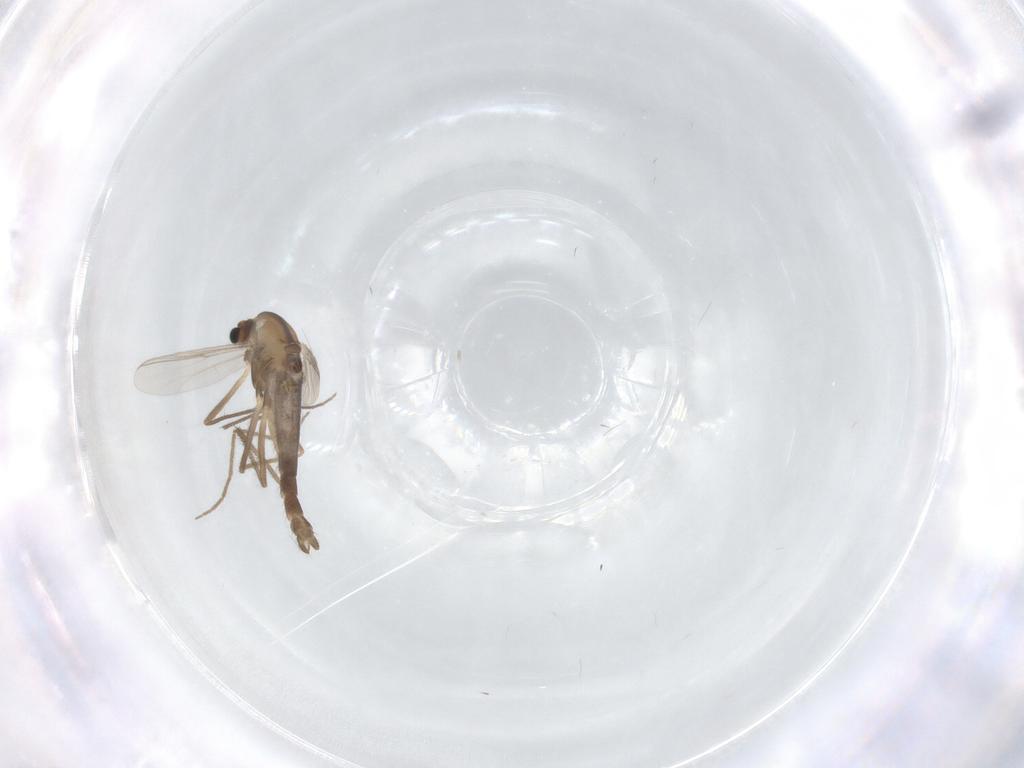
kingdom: Animalia
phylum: Arthropoda
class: Insecta
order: Diptera
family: Chironomidae
